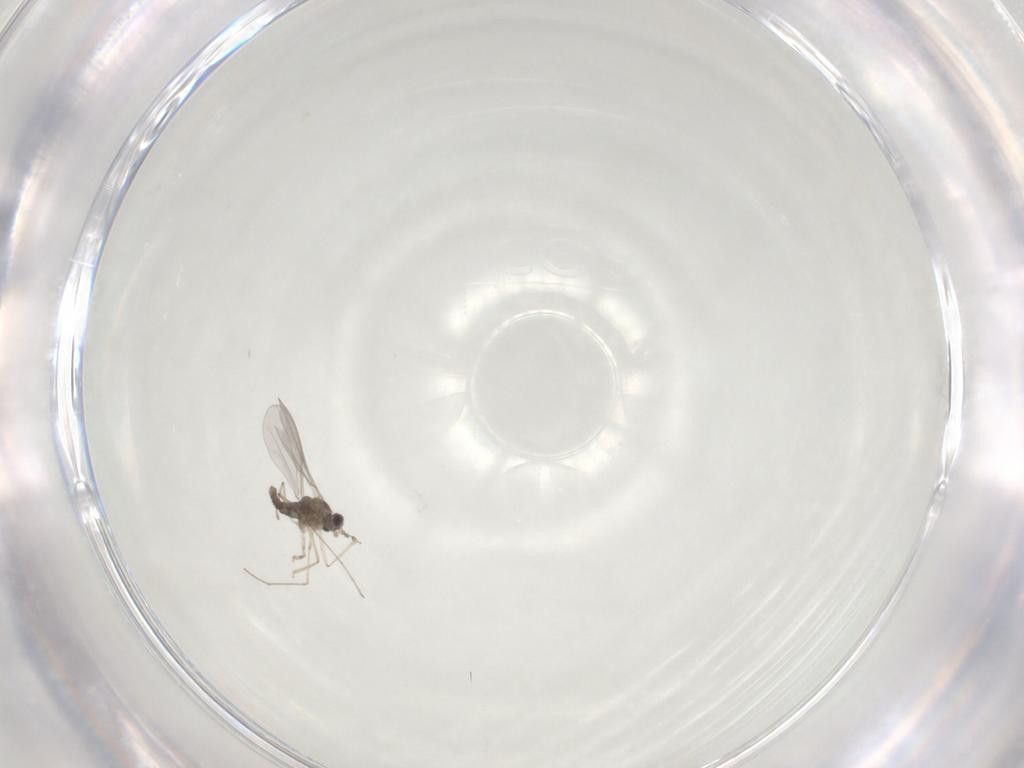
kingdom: Animalia
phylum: Arthropoda
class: Insecta
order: Diptera
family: Cecidomyiidae
